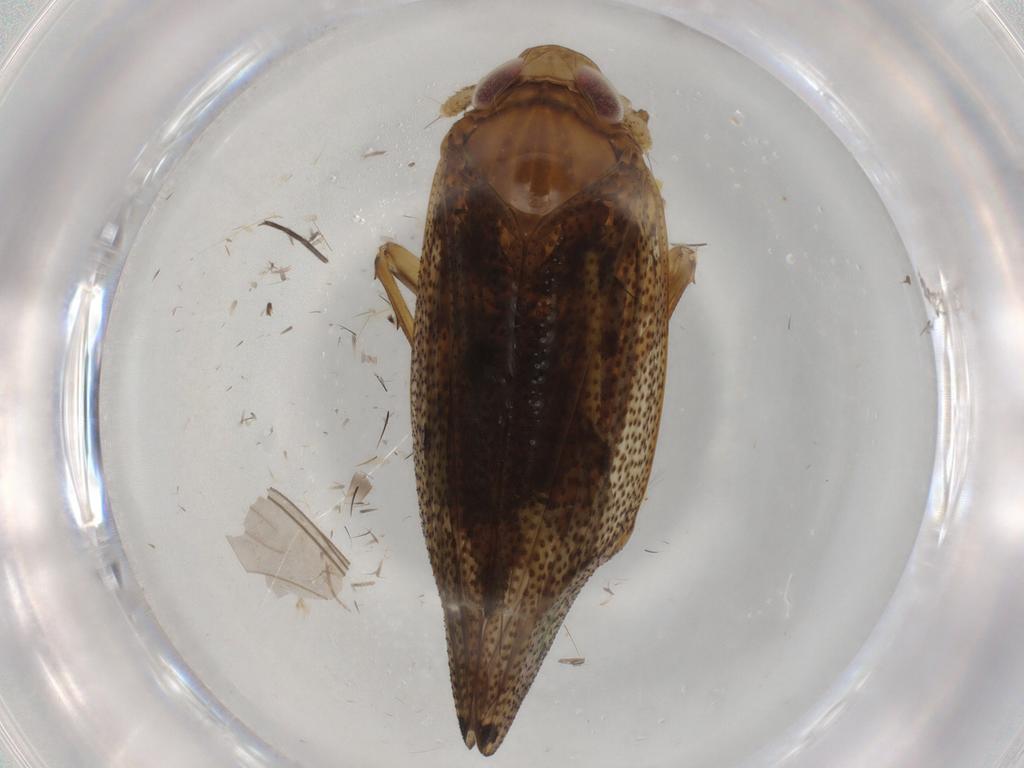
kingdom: Animalia
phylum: Arthropoda
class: Insecta
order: Hemiptera
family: Delphacidae
